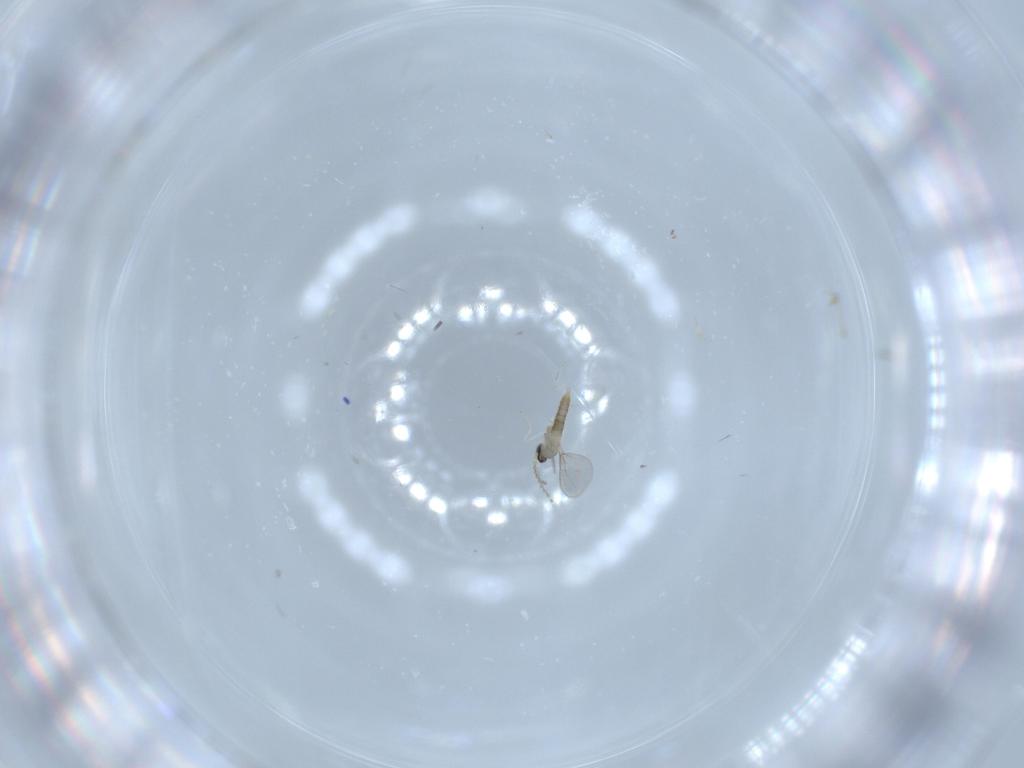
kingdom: Animalia
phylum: Arthropoda
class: Insecta
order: Diptera
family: Cecidomyiidae
